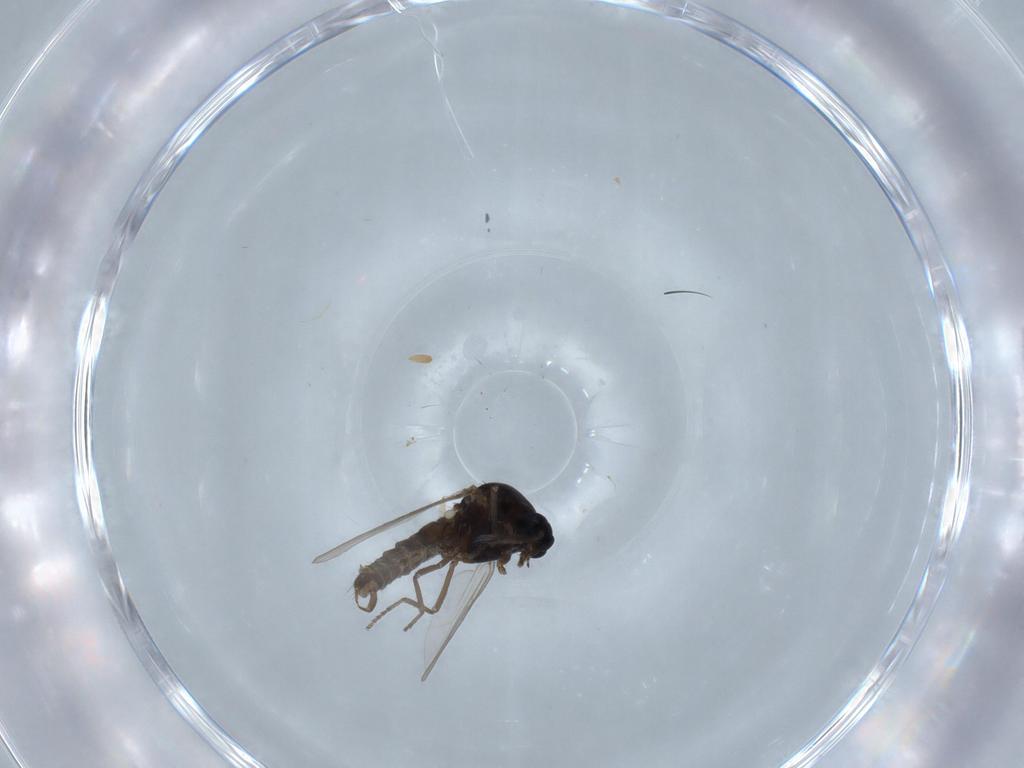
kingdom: Animalia
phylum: Arthropoda
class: Insecta
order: Diptera
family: Ceratopogonidae
